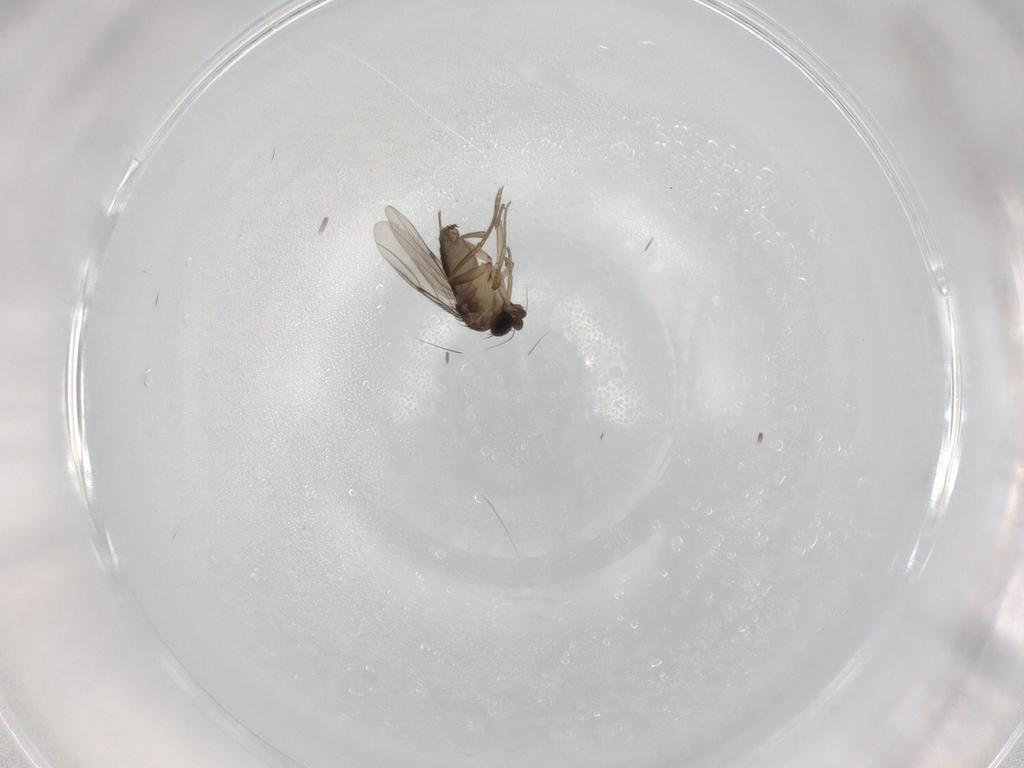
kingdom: Animalia
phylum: Arthropoda
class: Insecta
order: Diptera
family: Phoridae
